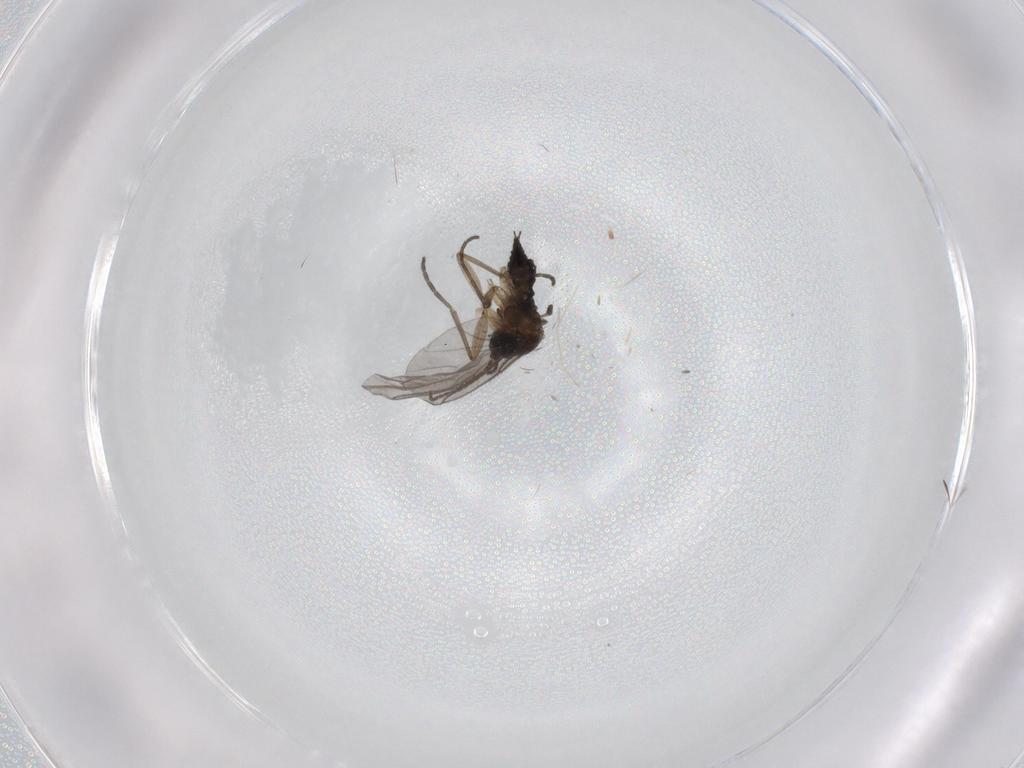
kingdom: Animalia
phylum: Arthropoda
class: Insecta
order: Diptera
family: Sciaridae
